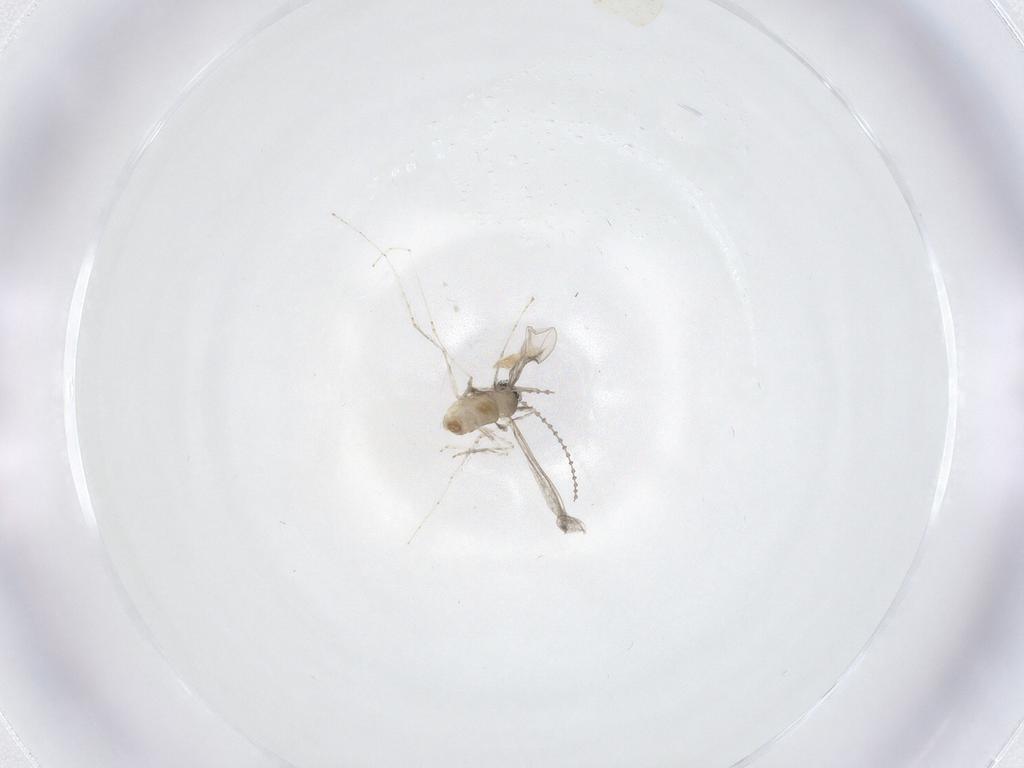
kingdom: Animalia
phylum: Arthropoda
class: Insecta
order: Diptera
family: Cecidomyiidae
